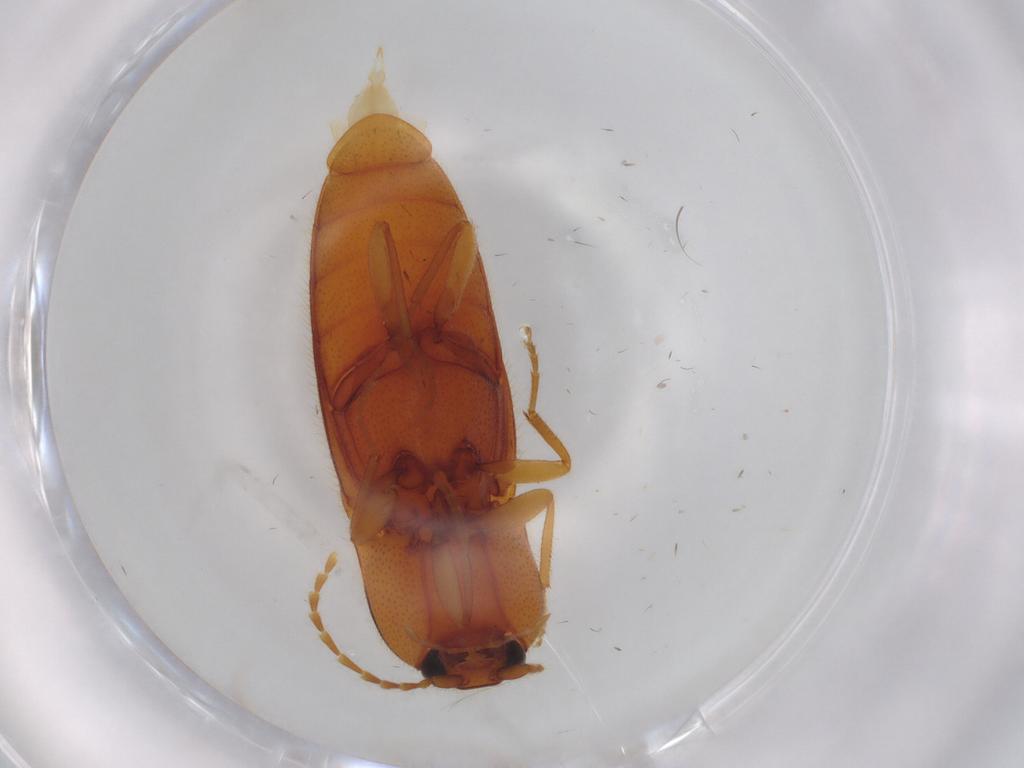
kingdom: Animalia
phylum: Arthropoda
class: Insecta
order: Coleoptera
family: Elateridae
